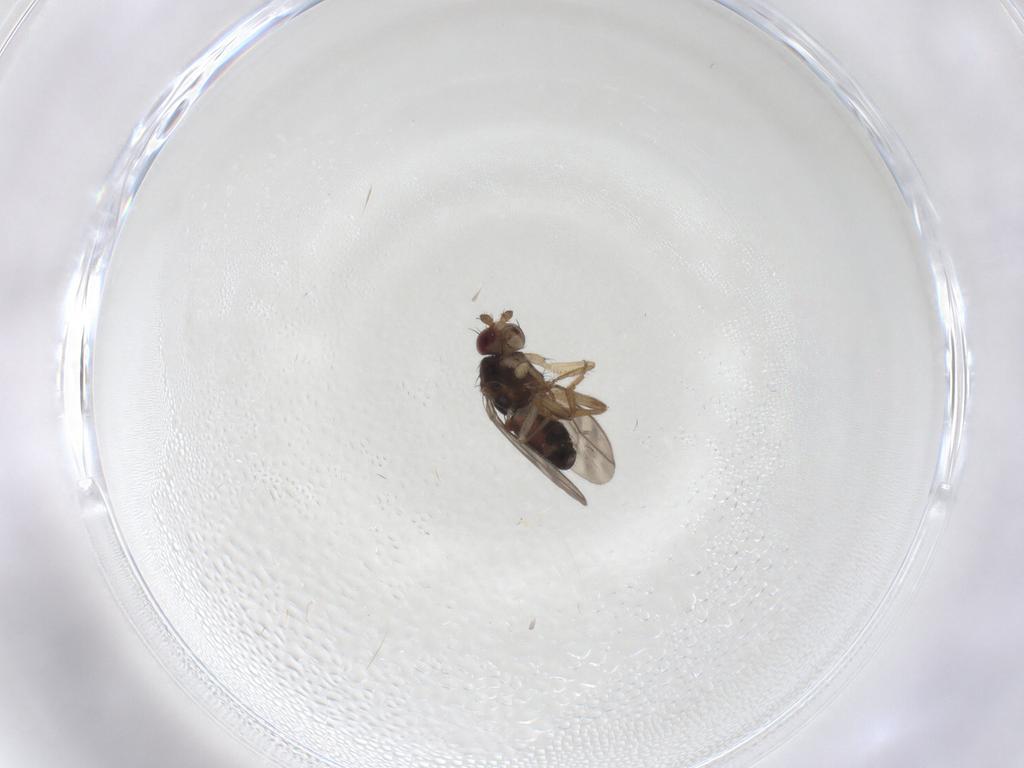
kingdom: Animalia
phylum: Arthropoda
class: Insecta
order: Diptera
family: Sphaeroceridae
